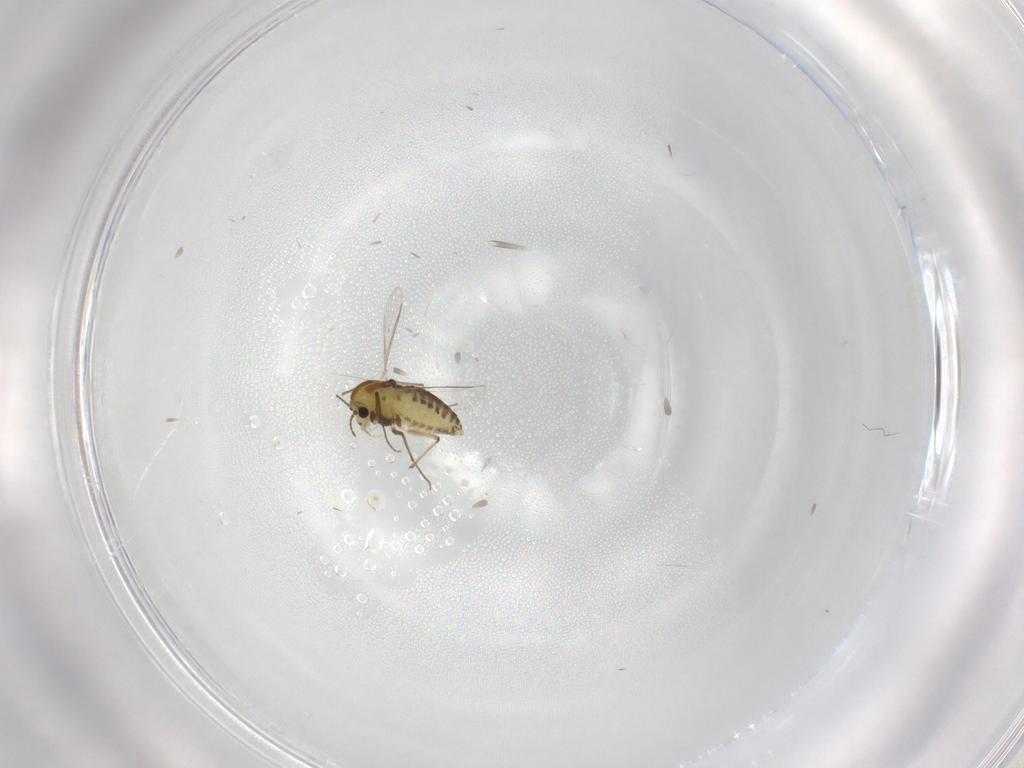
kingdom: Animalia
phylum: Arthropoda
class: Insecta
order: Diptera
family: Chironomidae
